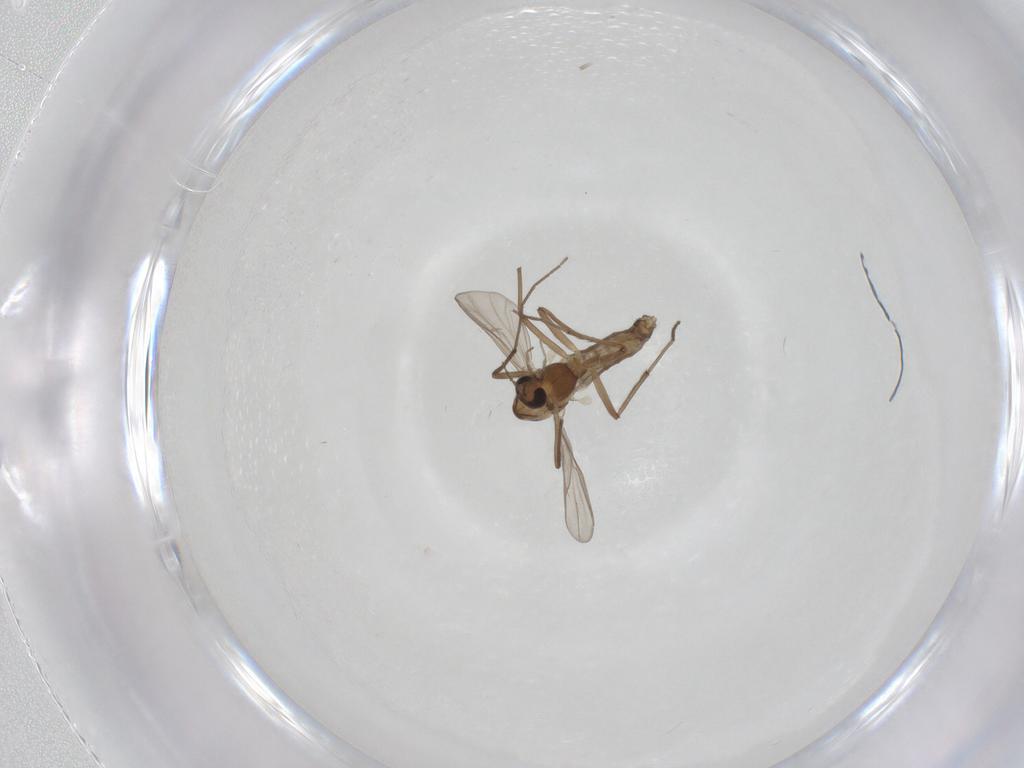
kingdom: Animalia
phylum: Arthropoda
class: Insecta
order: Diptera
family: Chironomidae
